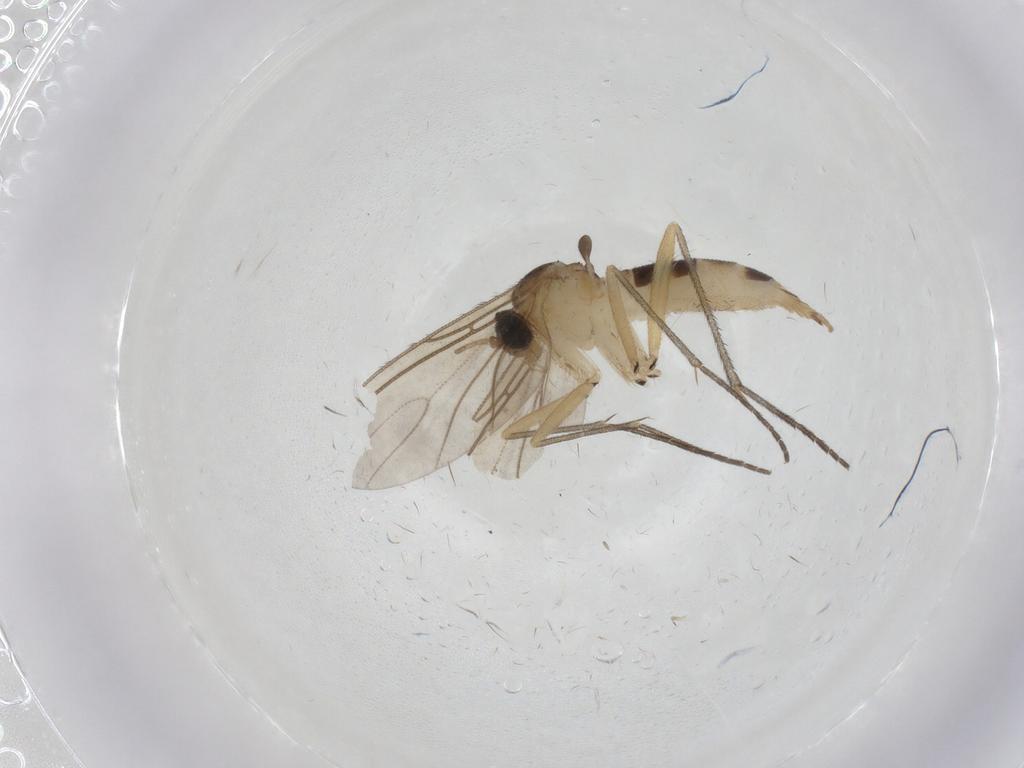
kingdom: Animalia
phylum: Arthropoda
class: Insecta
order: Diptera
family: Sciaridae
